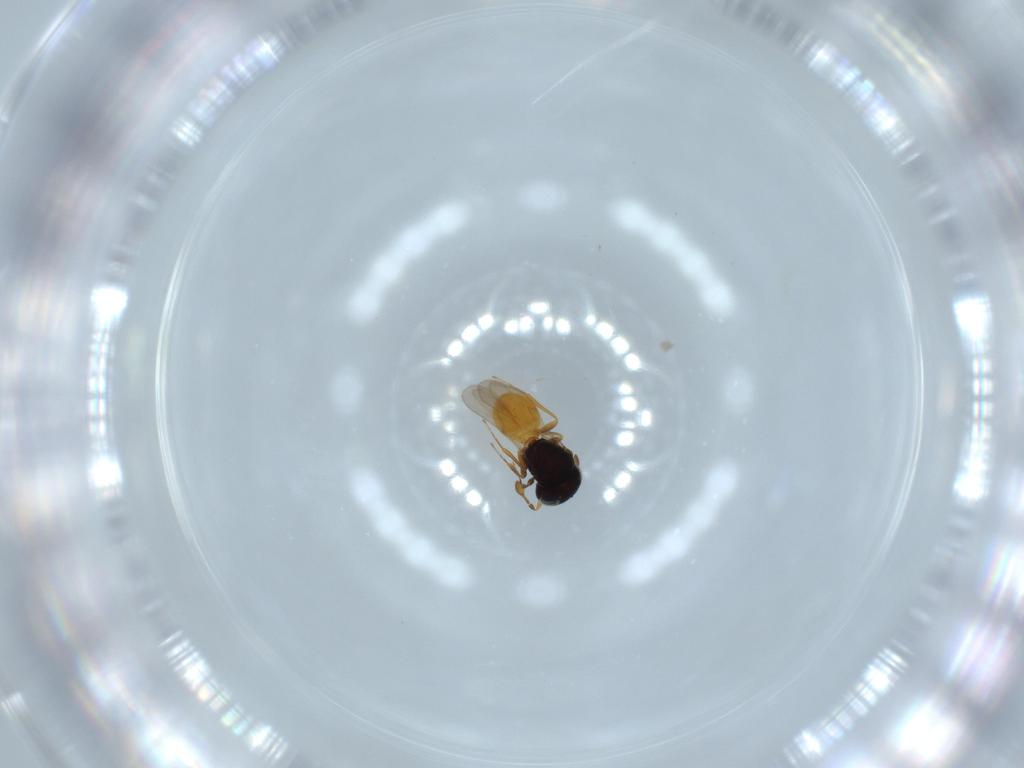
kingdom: Animalia
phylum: Arthropoda
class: Insecta
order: Hymenoptera
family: Scelionidae
